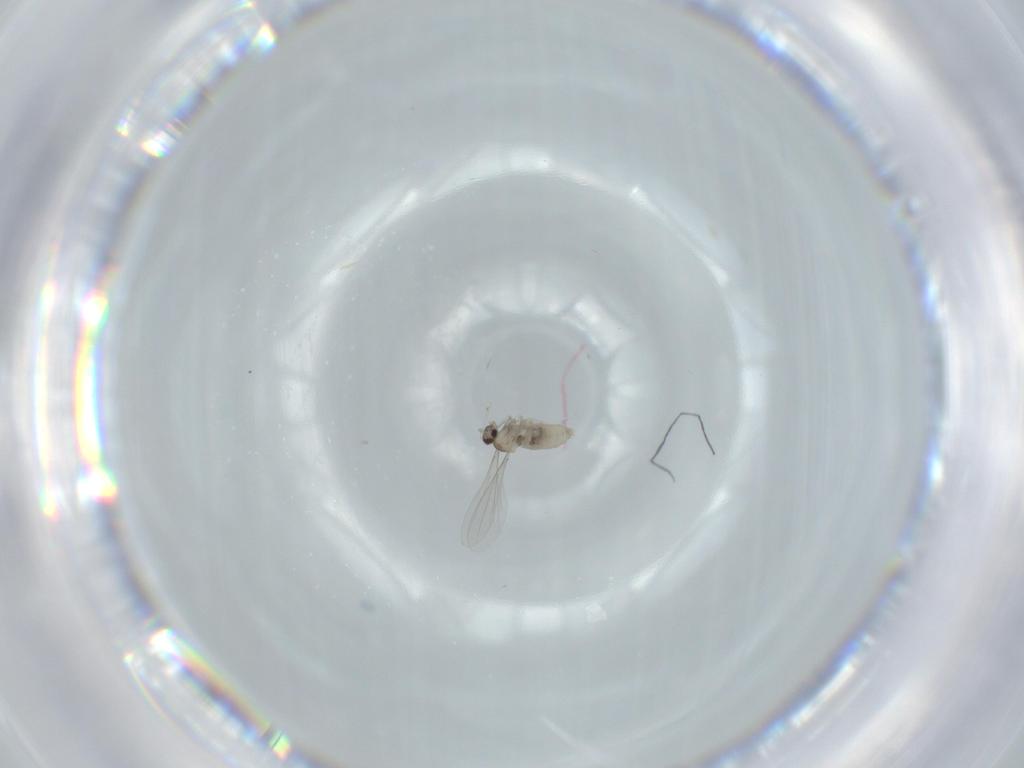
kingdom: Animalia
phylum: Arthropoda
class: Insecta
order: Diptera
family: Cecidomyiidae
